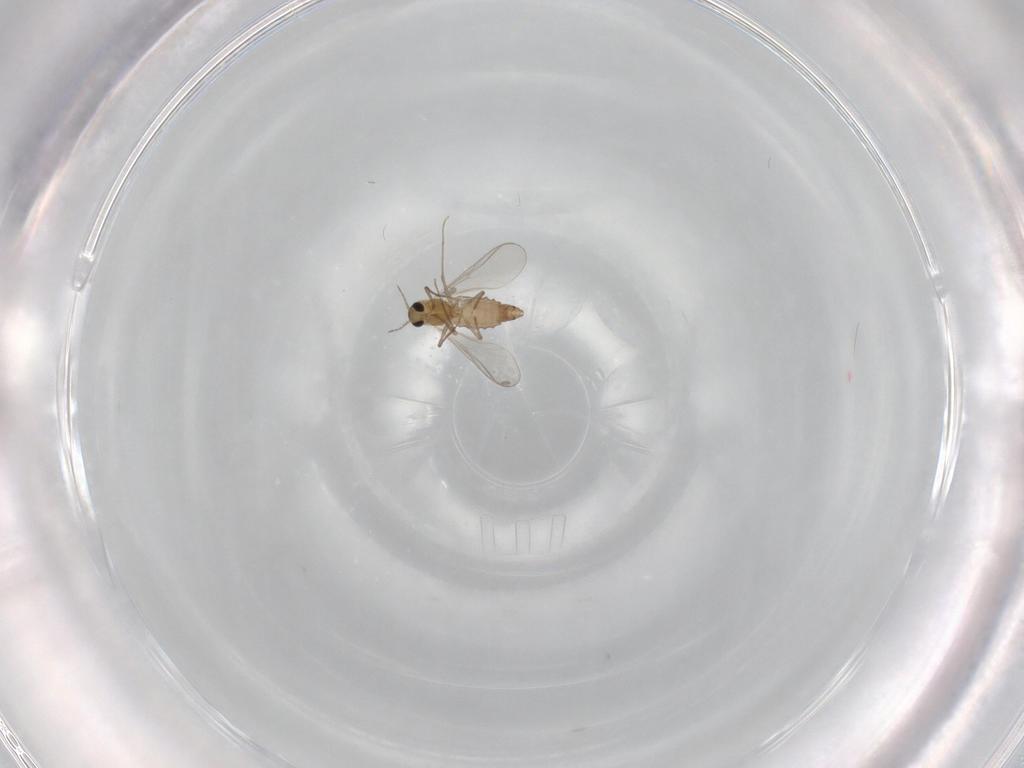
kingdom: Animalia
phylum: Arthropoda
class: Insecta
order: Diptera
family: Chironomidae
